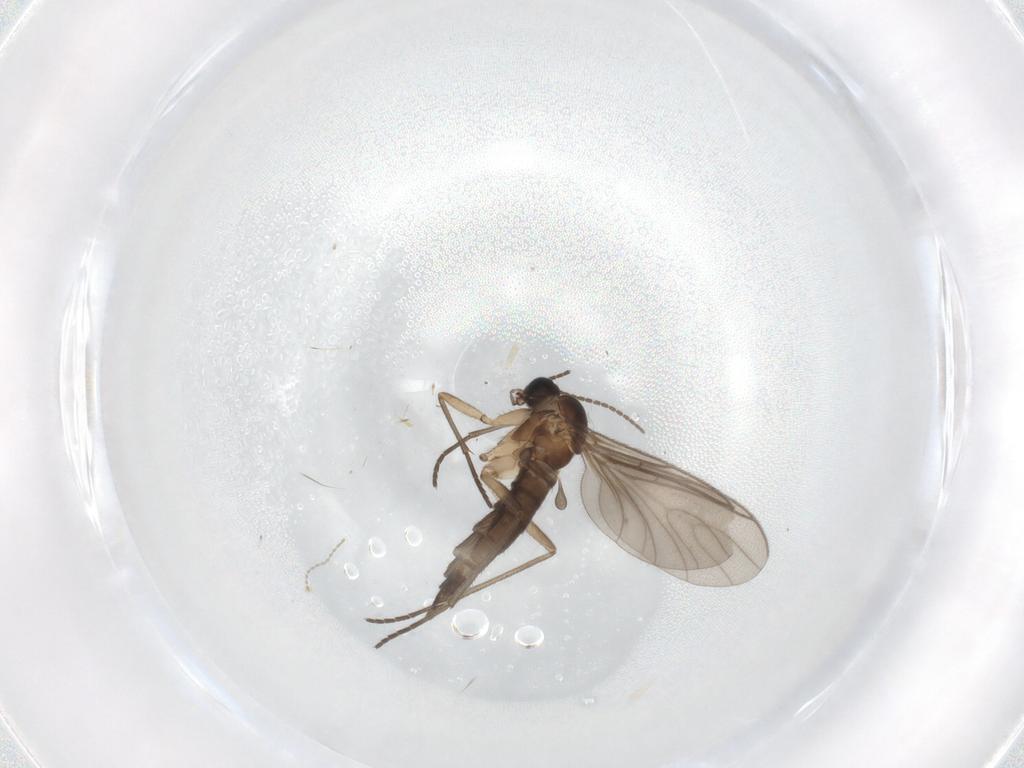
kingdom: Animalia
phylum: Arthropoda
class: Insecta
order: Diptera
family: Sciaridae
